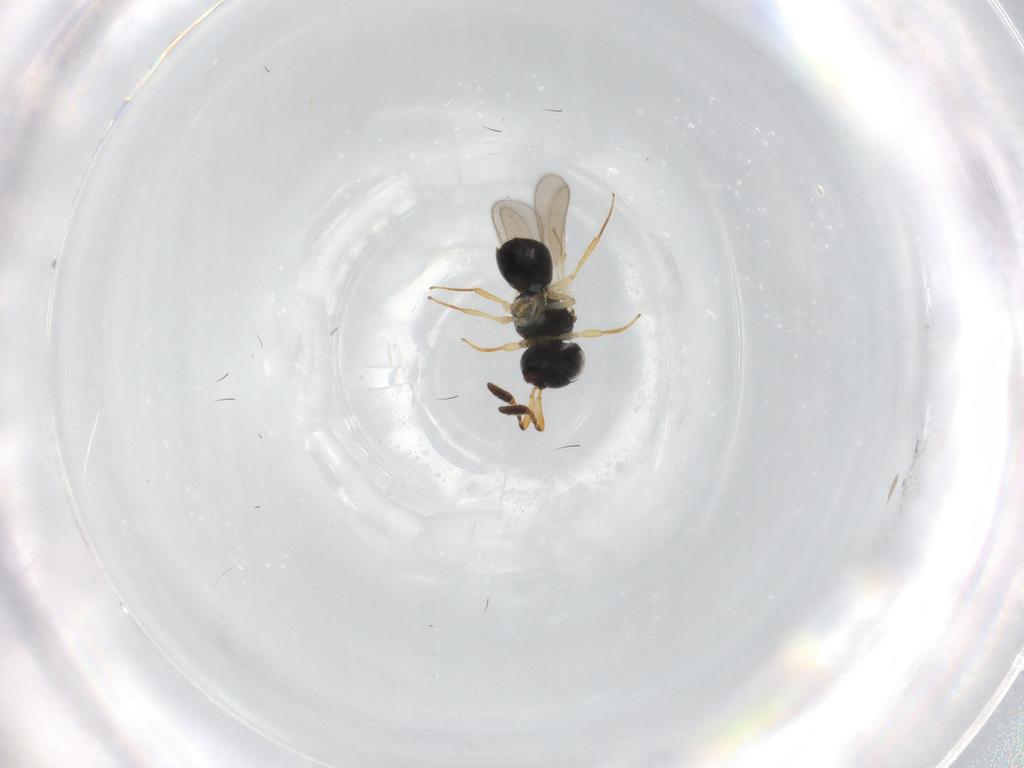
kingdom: Animalia
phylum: Arthropoda
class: Insecta
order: Hymenoptera
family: Scelionidae
